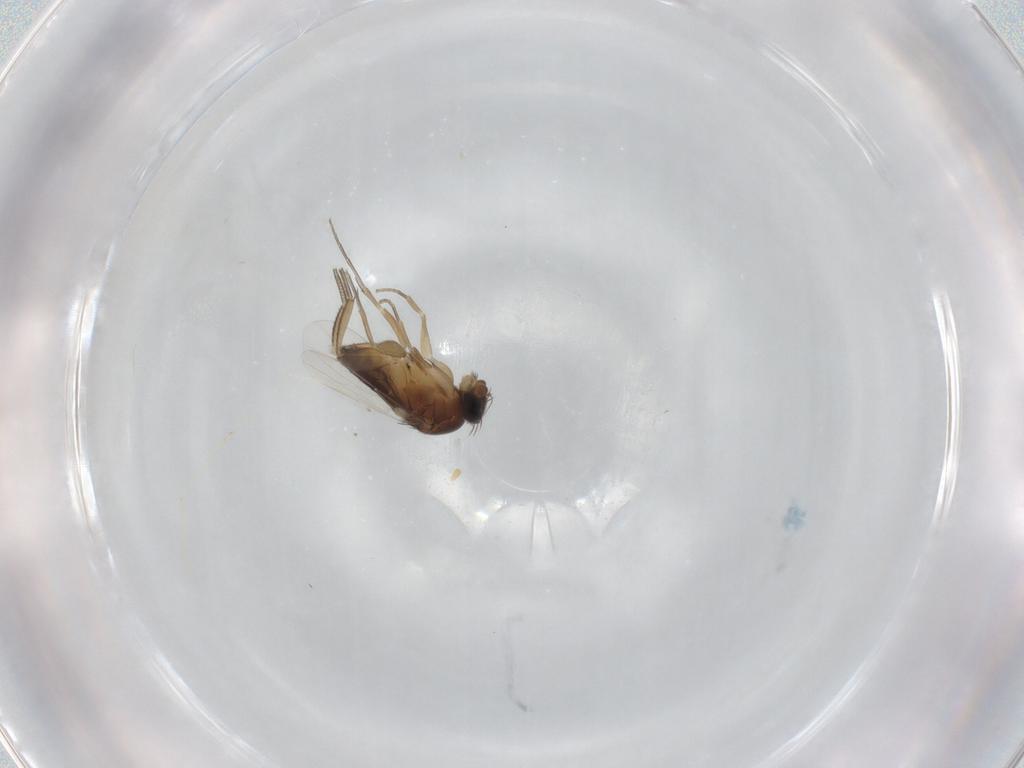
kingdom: Animalia
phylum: Arthropoda
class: Insecta
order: Diptera
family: Cecidomyiidae
